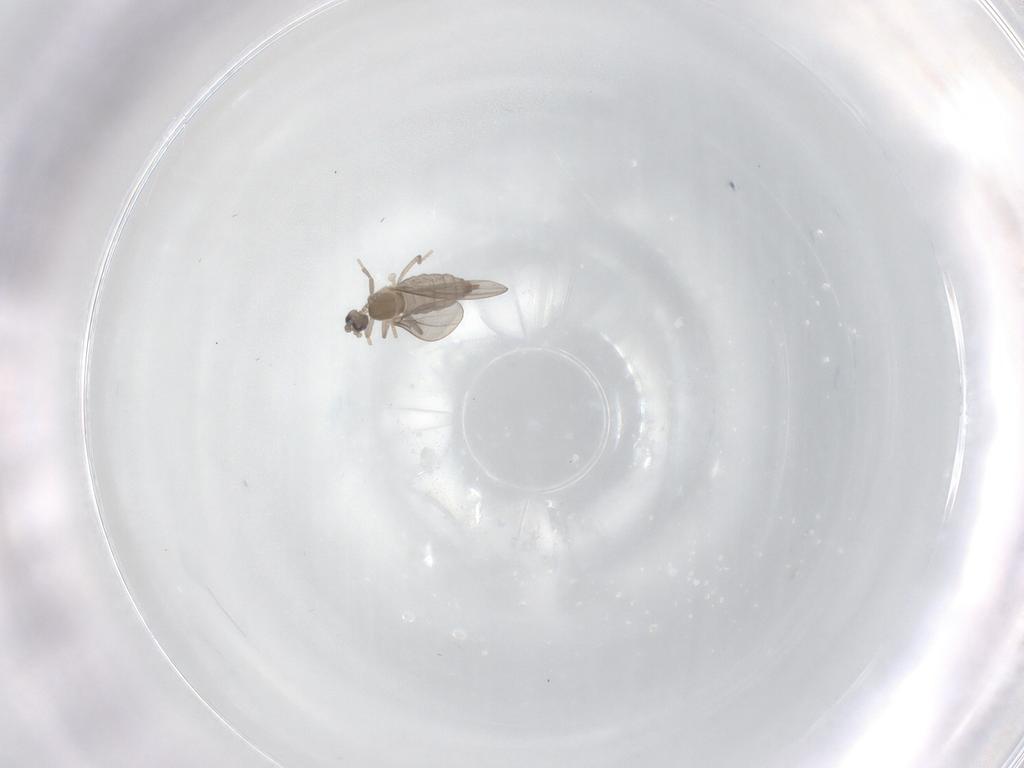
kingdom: Animalia
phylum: Arthropoda
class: Insecta
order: Diptera
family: Cecidomyiidae
